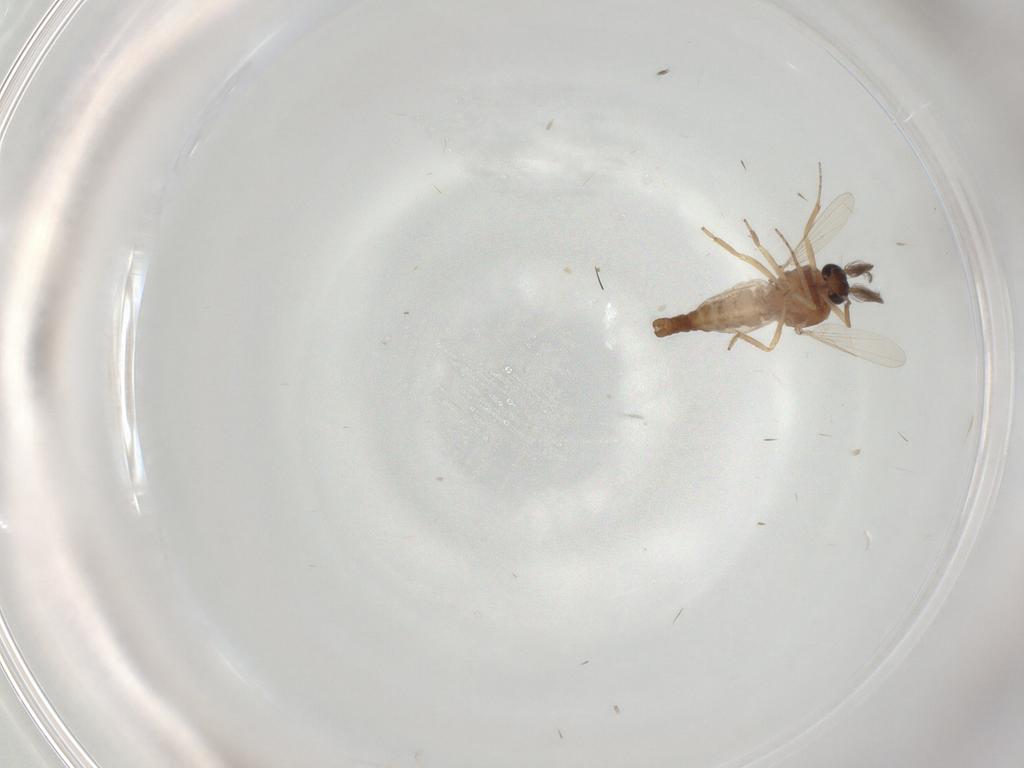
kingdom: Animalia
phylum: Arthropoda
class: Insecta
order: Diptera
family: Ceratopogonidae
